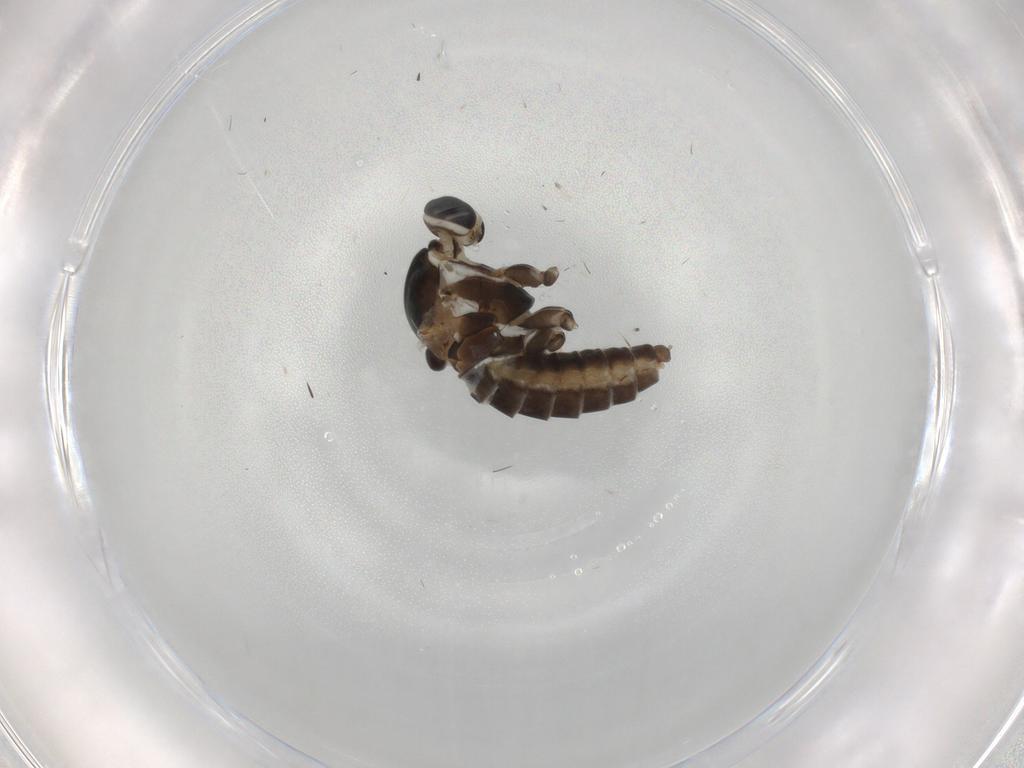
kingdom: Animalia
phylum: Arthropoda
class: Insecta
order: Diptera
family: Cecidomyiidae
